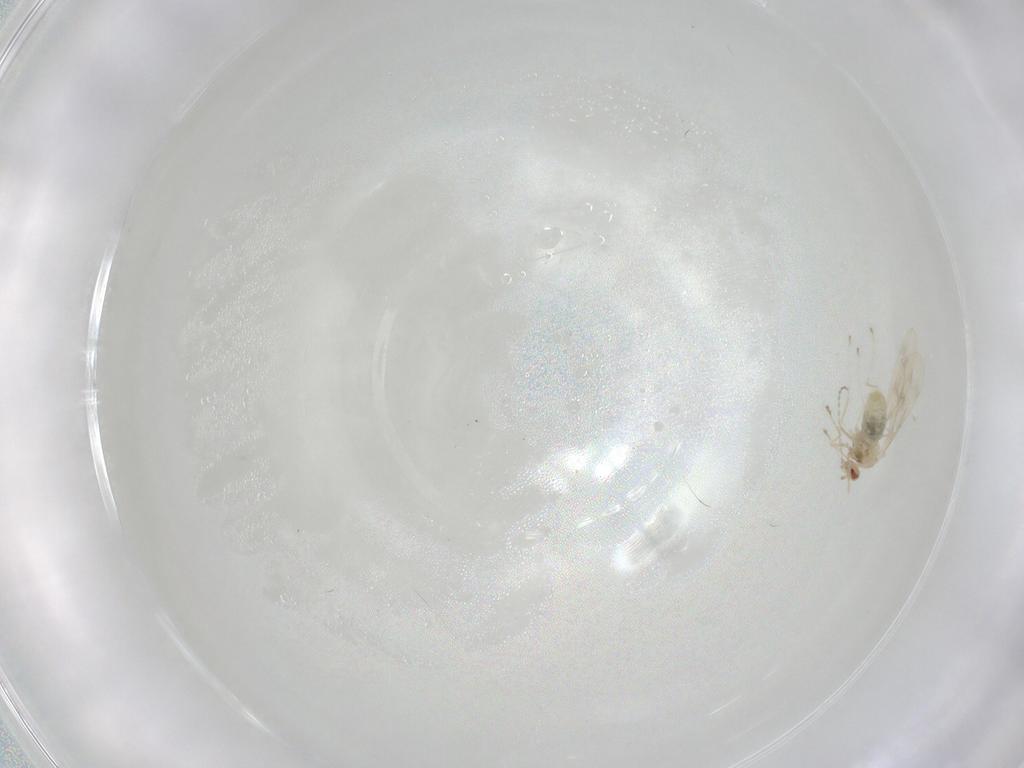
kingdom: Animalia
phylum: Arthropoda
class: Insecta
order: Diptera
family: Cecidomyiidae
